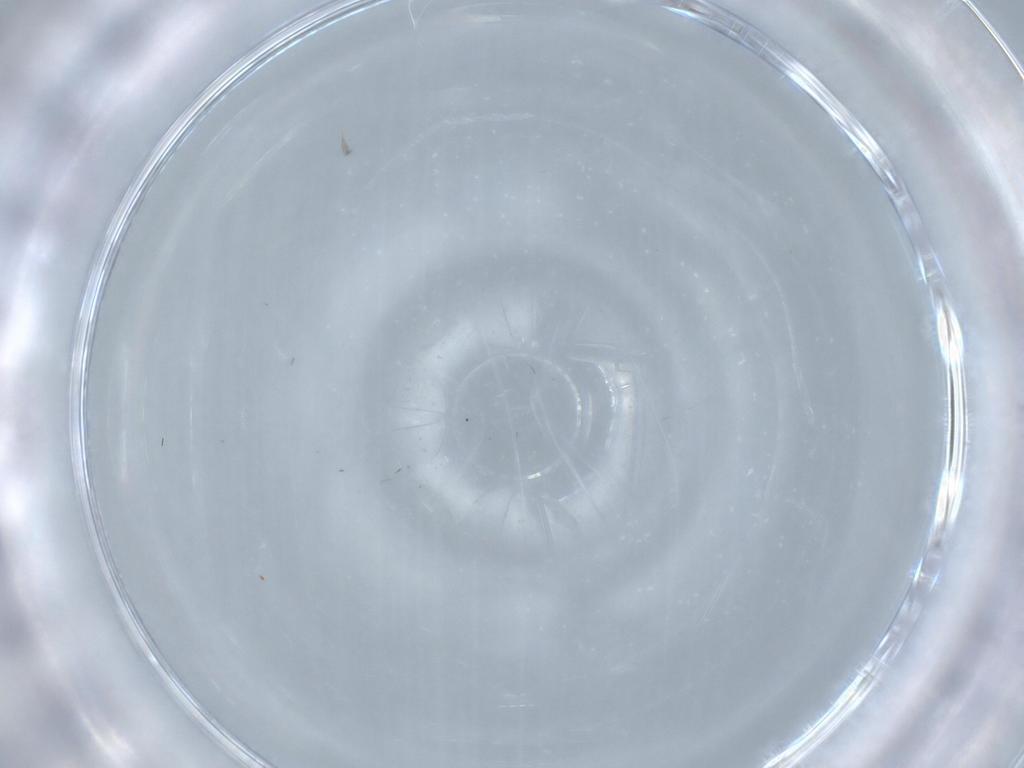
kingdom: Animalia
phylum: Arthropoda
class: Insecta
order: Diptera
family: Sciaridae
